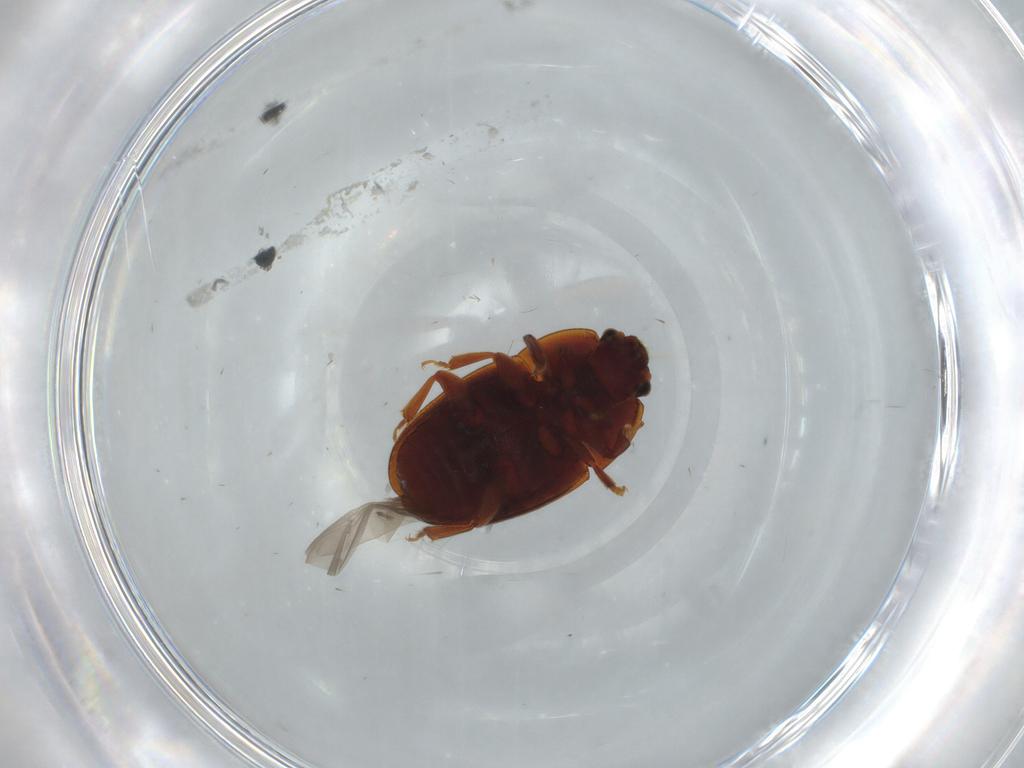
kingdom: Animalia
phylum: Arthropoda
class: Insecta
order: Coleoptera
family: Nitidulidae
